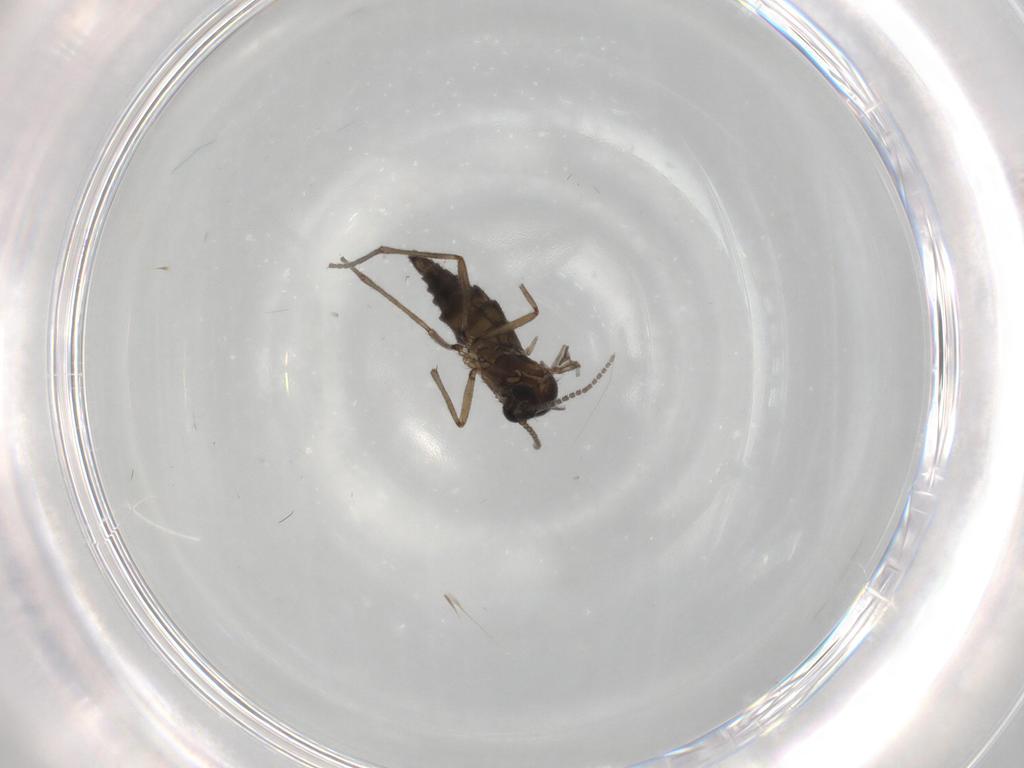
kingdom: Animalia
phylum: Arthropoda
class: Insecta
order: Diptera
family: Sciaridae
